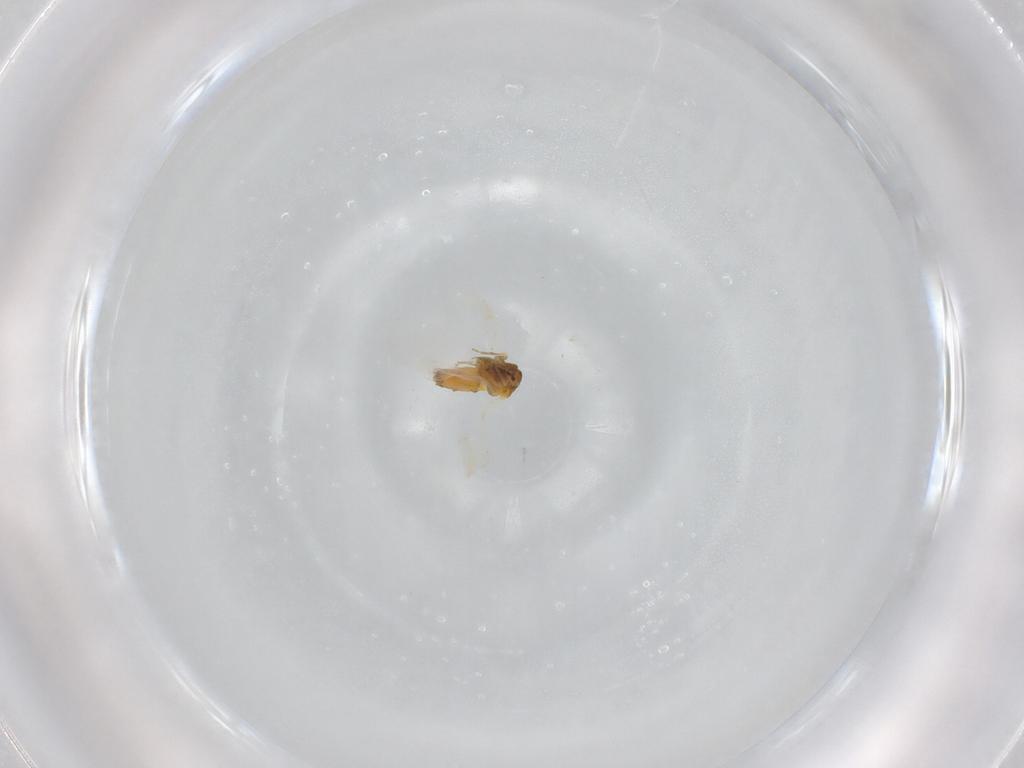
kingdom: Animalia
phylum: Arthropoda
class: Insecta
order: Hemiptera
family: Aleyrodidae
